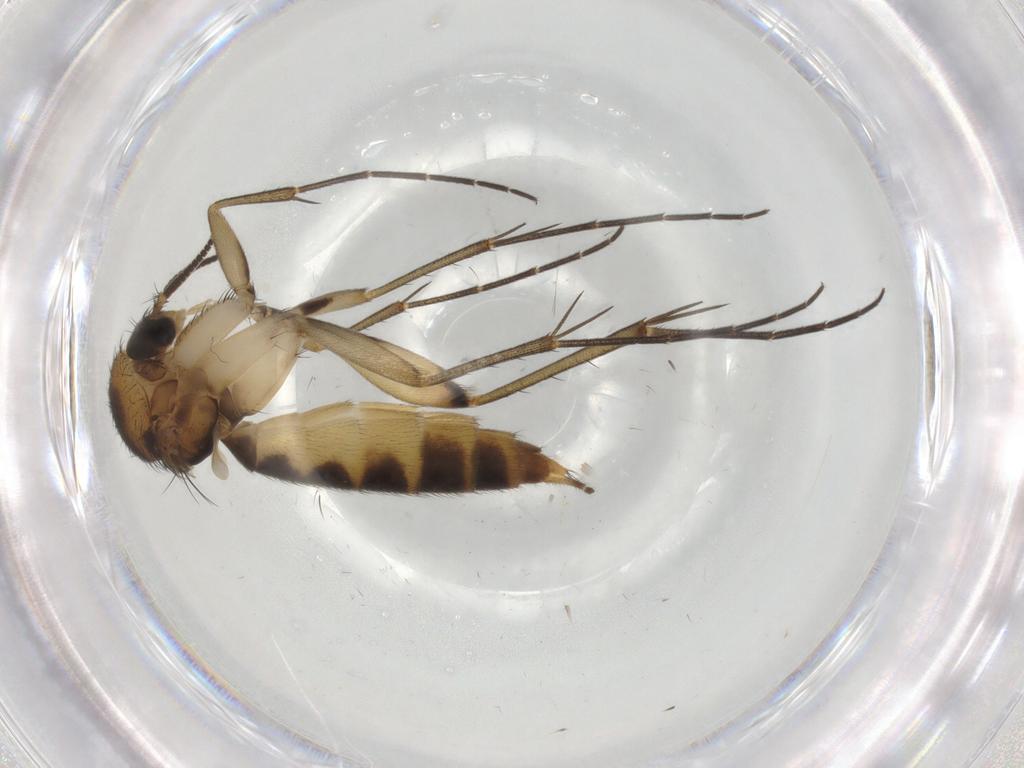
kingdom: Animalia
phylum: Arthropoda
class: Insecta
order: Diptera
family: Mycetophilidae
